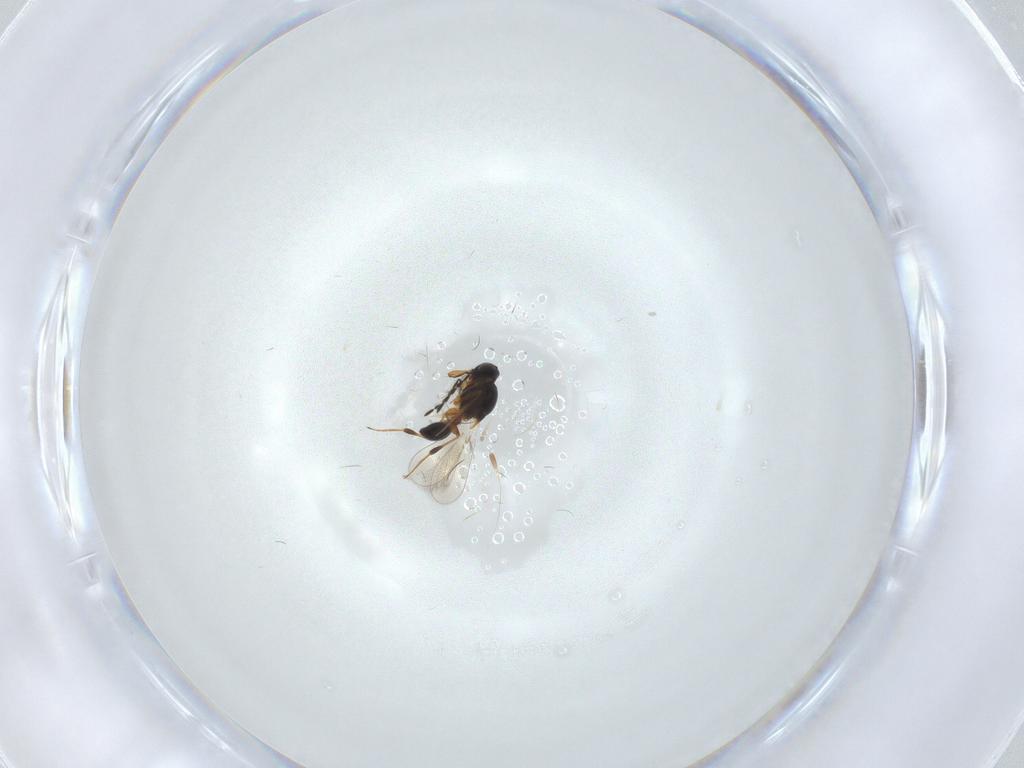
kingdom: Animalia
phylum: Arthropoda
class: Insecta
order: Hymenoptera
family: Platygastridae
